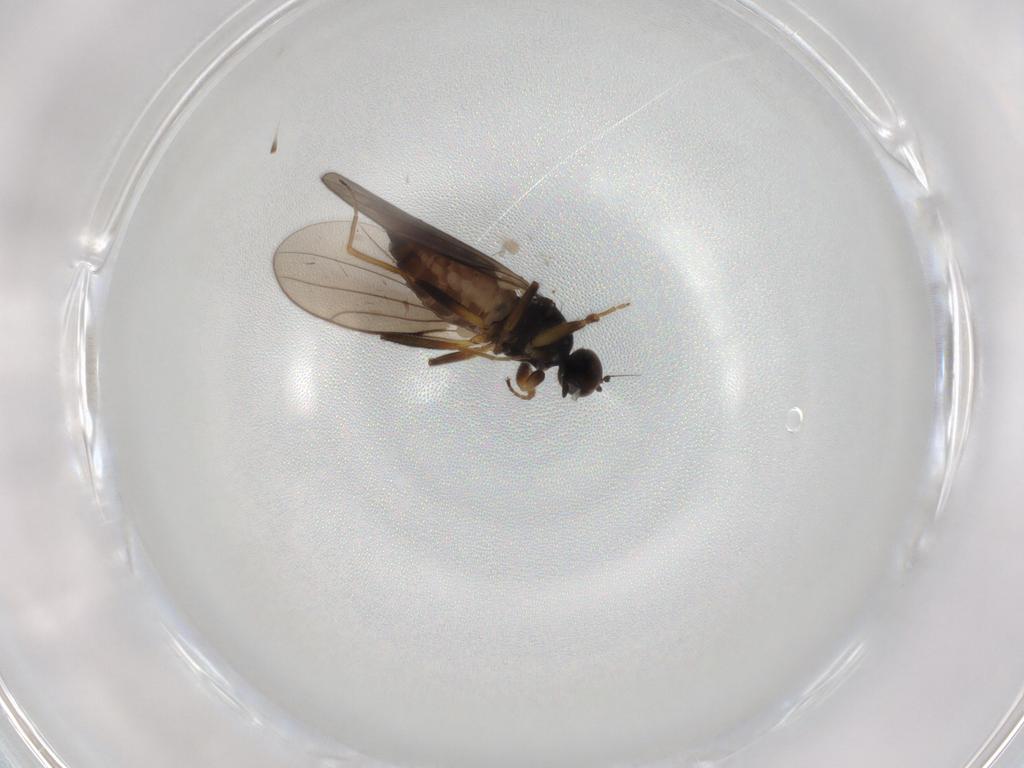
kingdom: Animalia
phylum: Arthropoda
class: Insecta
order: Diptera
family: Hybotidae
